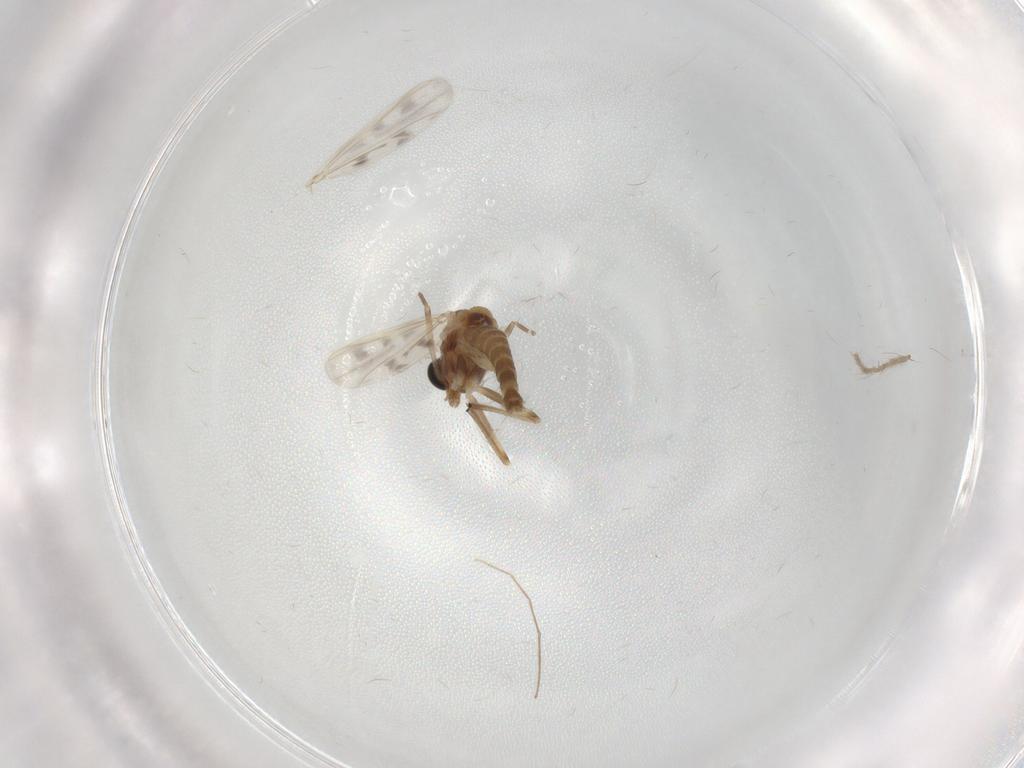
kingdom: Animalia
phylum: Arthropoda
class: Insecta
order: Diptera
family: Chironomidae
